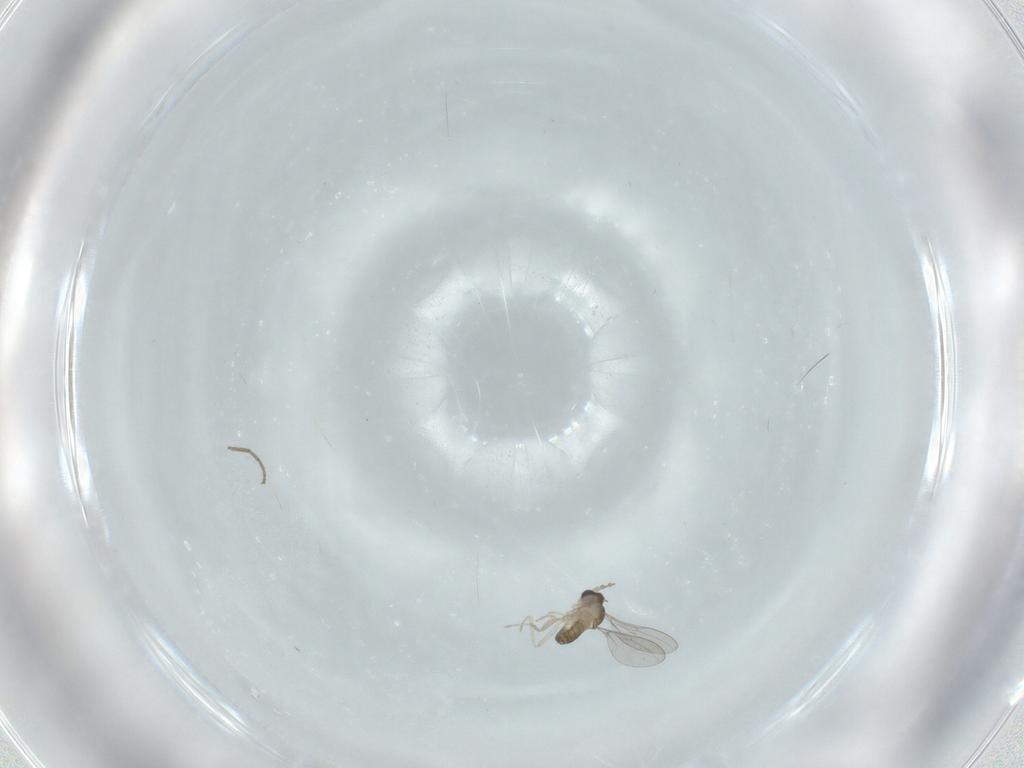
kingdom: Animalia
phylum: Arthropoda
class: Insecta
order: Diptera
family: Cecidomyiidae
